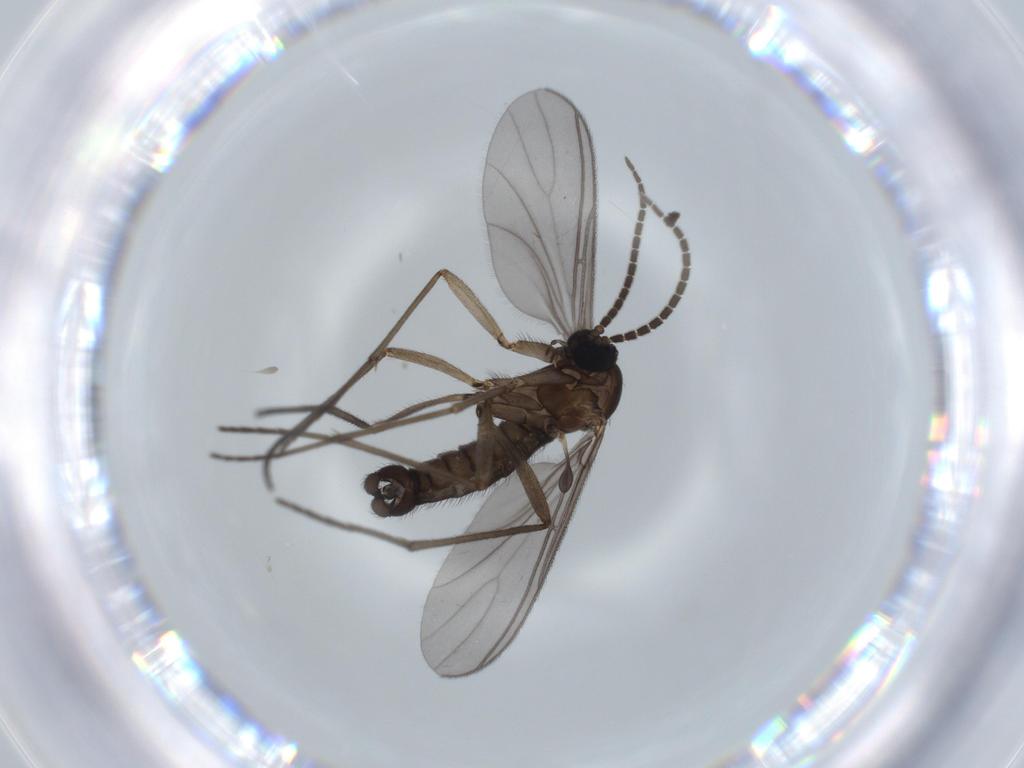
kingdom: Animalia
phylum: Arthropoda
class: Insecta
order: Diptera
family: Sciaridae
